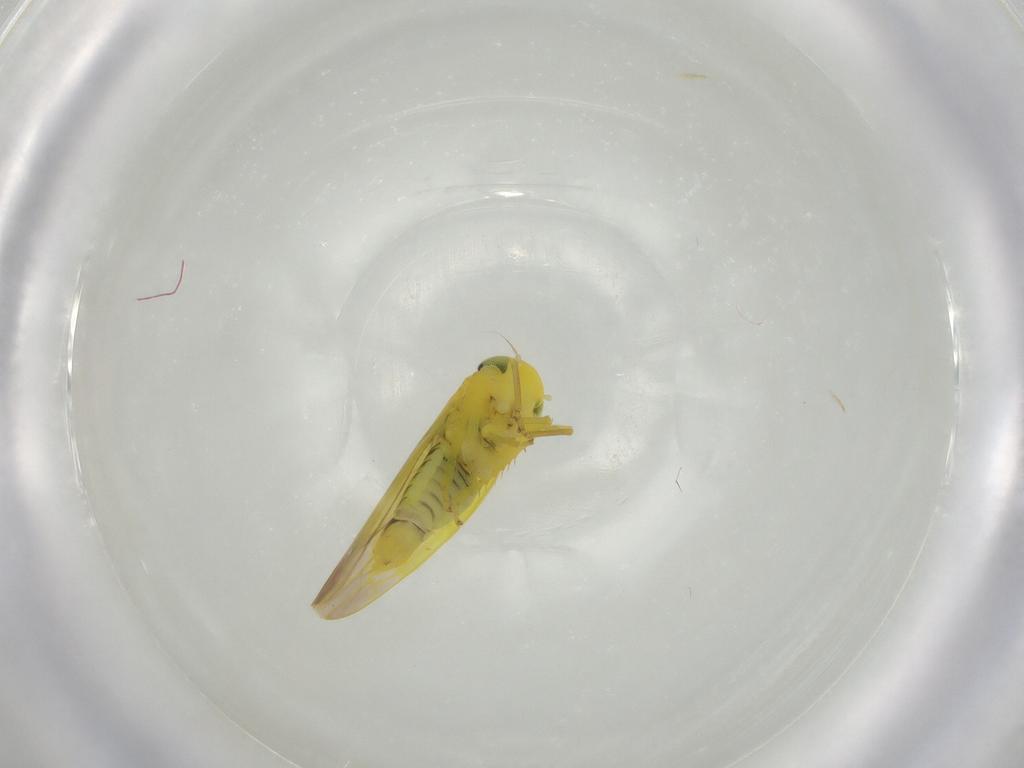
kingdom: Animalia
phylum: Arthropoda
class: Insecta
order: Hemiptera
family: Cicadellidae
